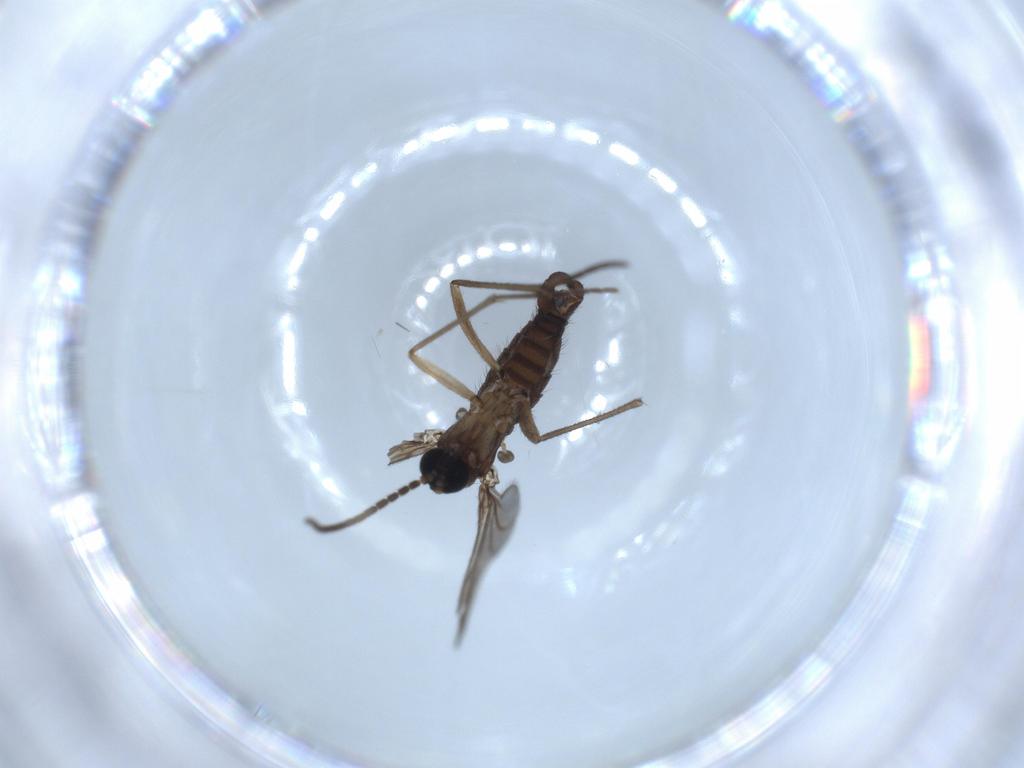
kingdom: Animalia
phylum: Arthropoda
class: Insecta
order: Diptera
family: Sciaridae
